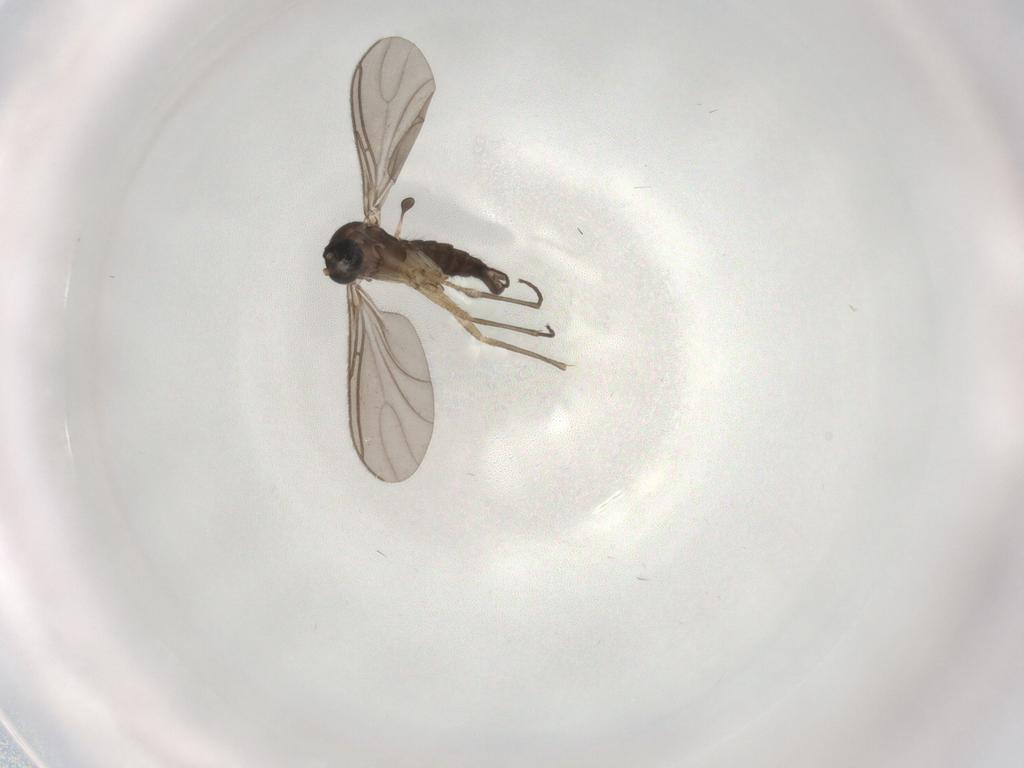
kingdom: Animalia
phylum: Arthropoda
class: Insecta
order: Diptera
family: Sciaridae
